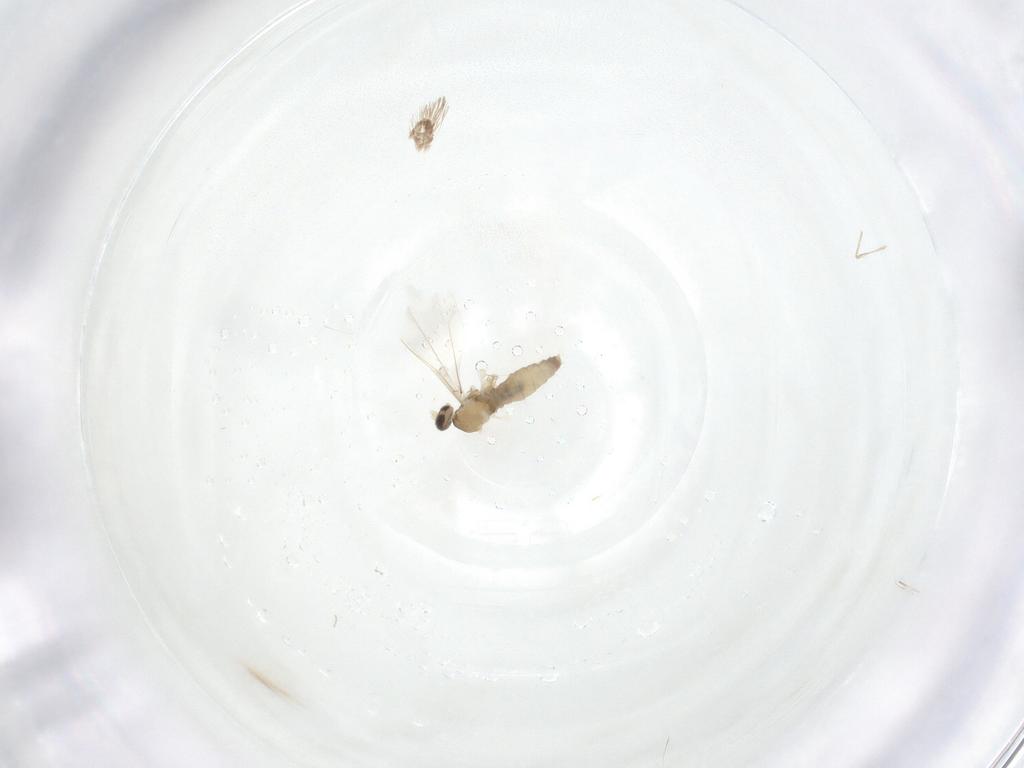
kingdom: Animalia
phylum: Arthropoda
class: Insecta
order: Diptera
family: Cecidomyiidae
